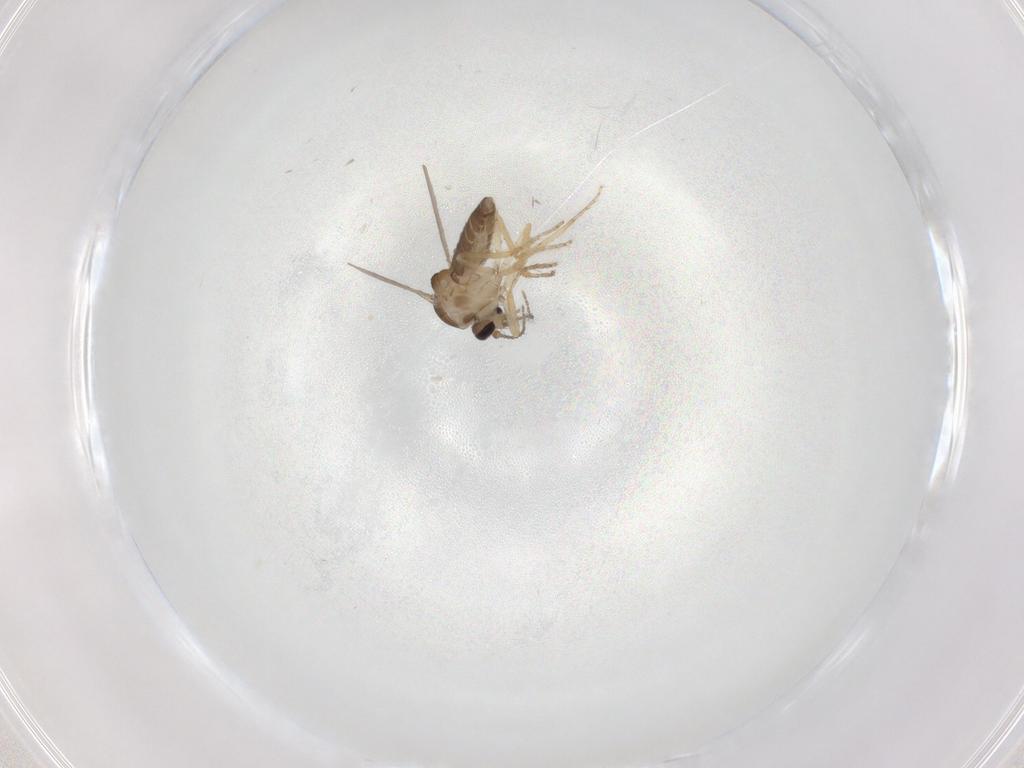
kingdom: Animalia
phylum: Arthropoda
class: Insecta
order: Diptera
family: Ceratopogonidae
